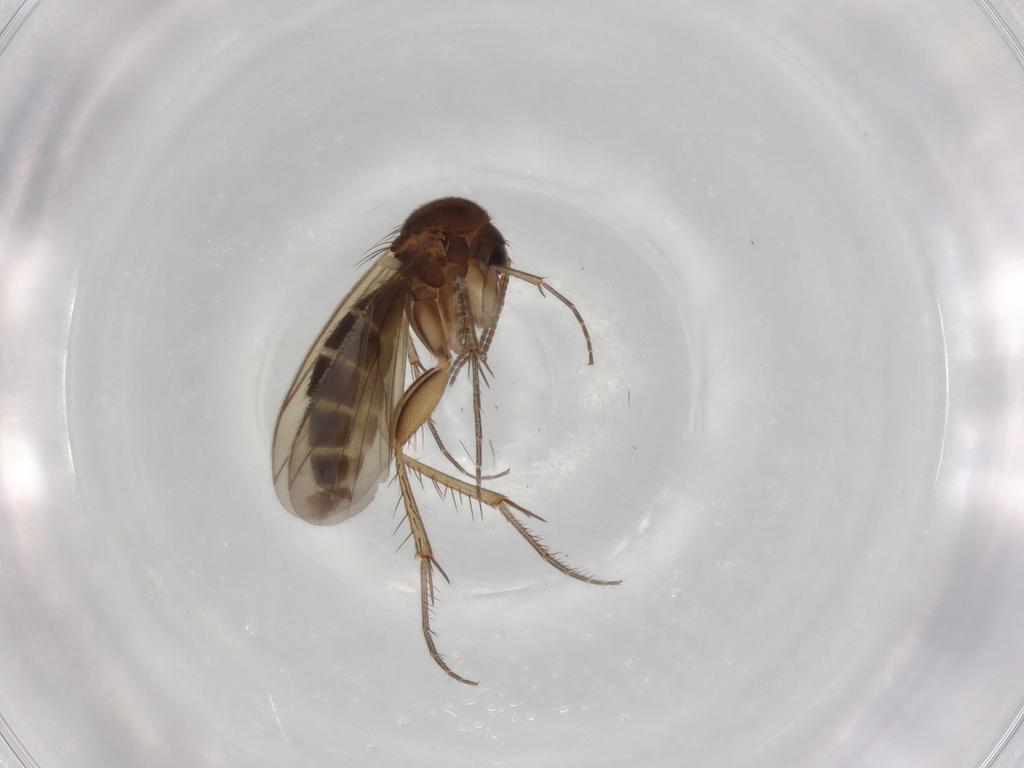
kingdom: Animalia
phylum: Arthropoda
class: Insecta
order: Diptera
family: Mycetophilidae
